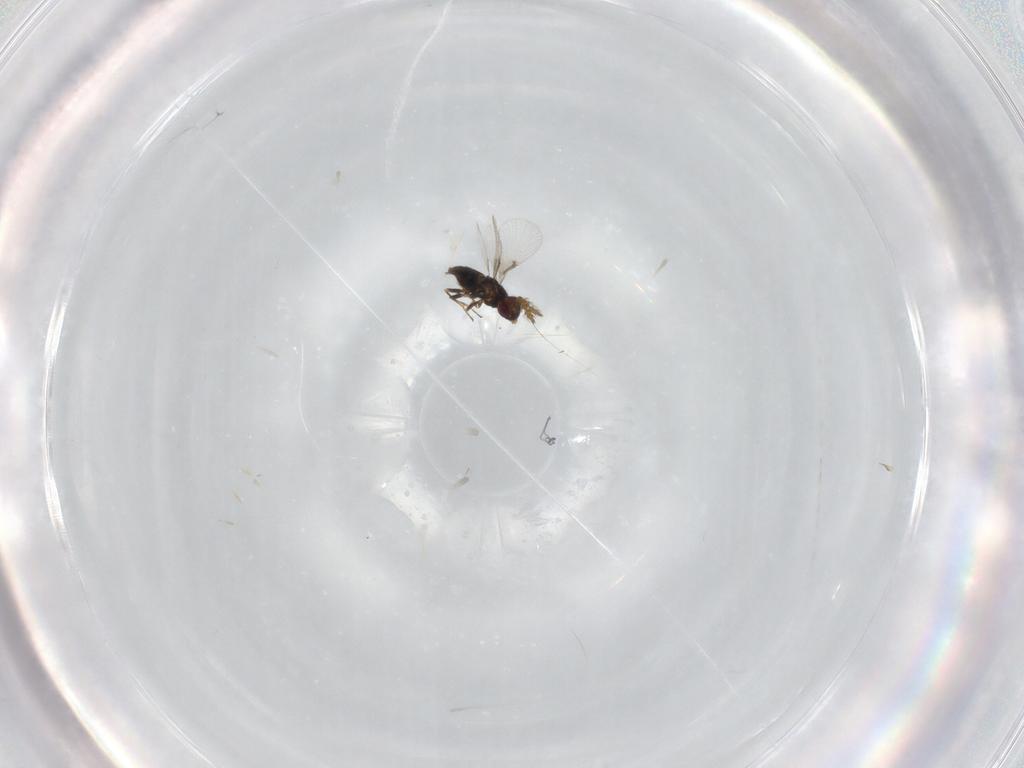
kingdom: Animalia
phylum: Arthropoda
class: Insecta
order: Hymenoptera
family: Agaonidae
